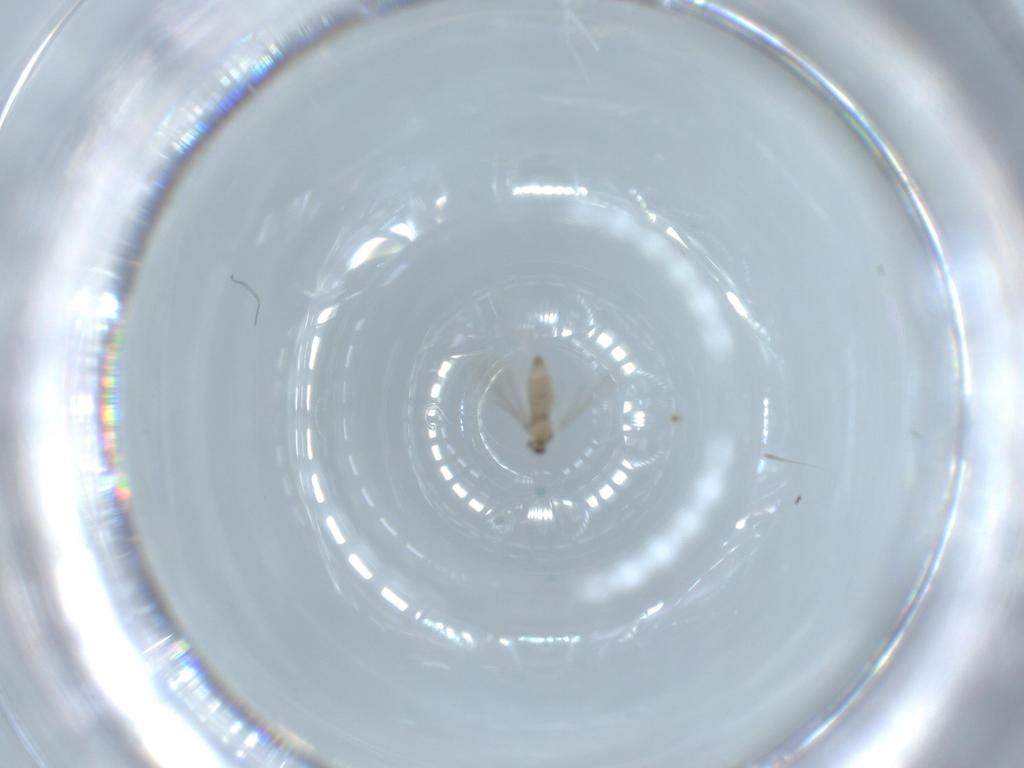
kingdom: Animalia
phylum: Arthropoda
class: Insecta
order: Diptera
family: Cecidomyiidae
